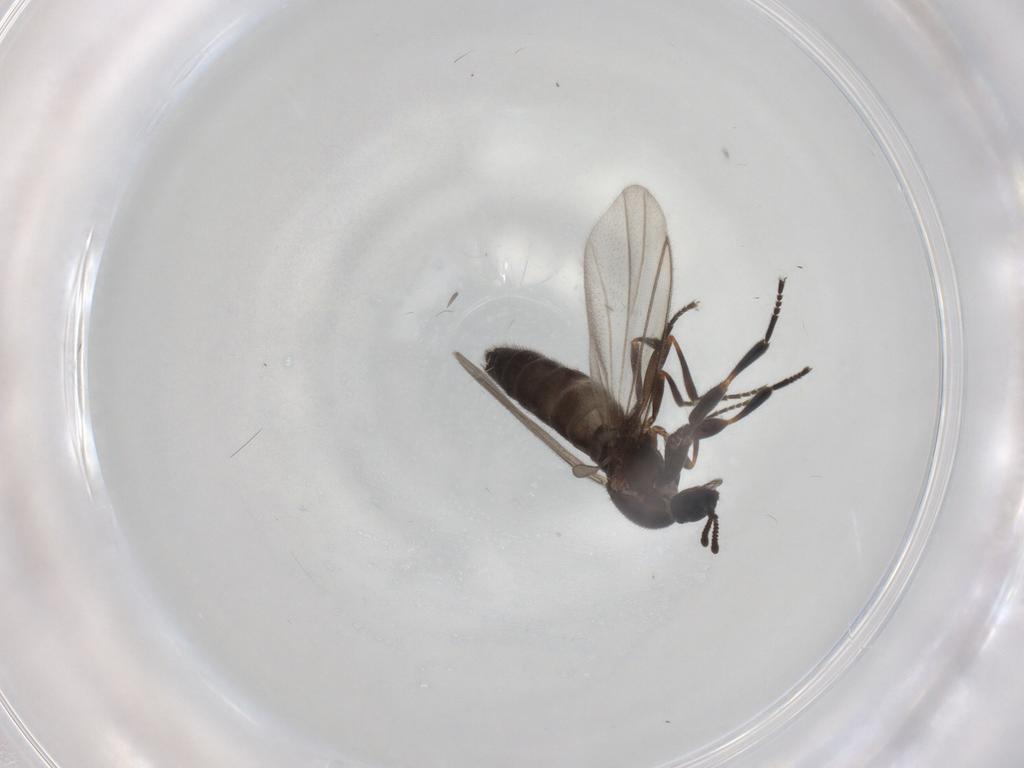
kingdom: Animalia
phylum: Arthropoda
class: Insecta
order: Diptera
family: Scatopsidae
